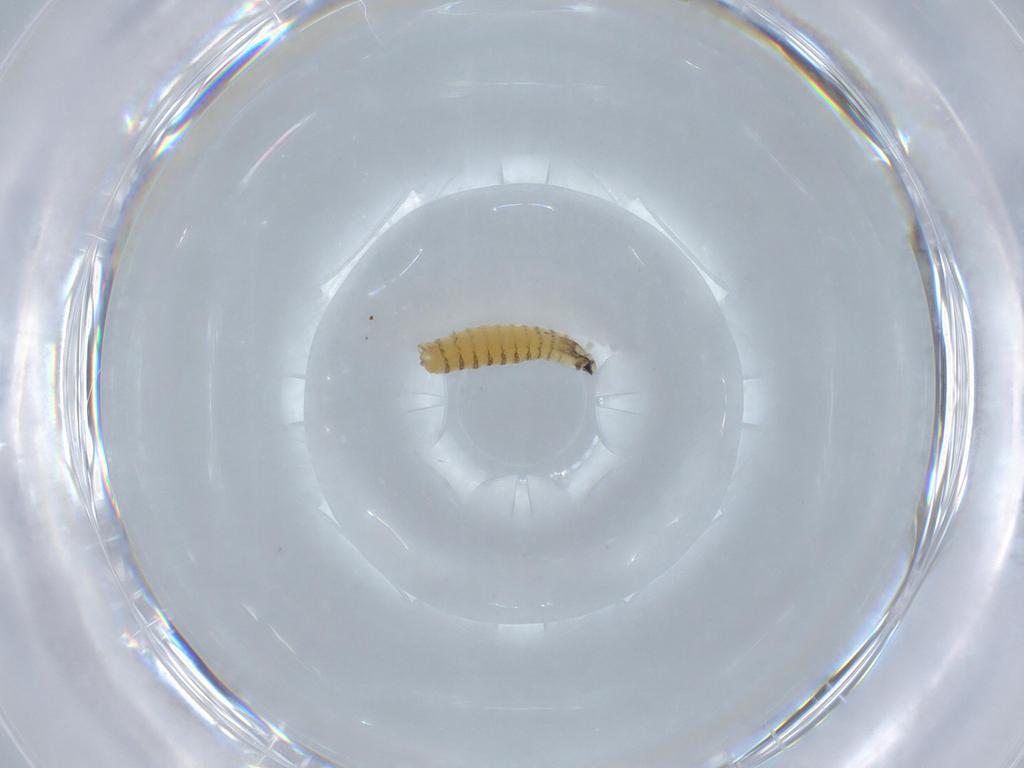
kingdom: Animalia
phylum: Arthropoda
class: Insecta
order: Diptera
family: Sarcophagidae
